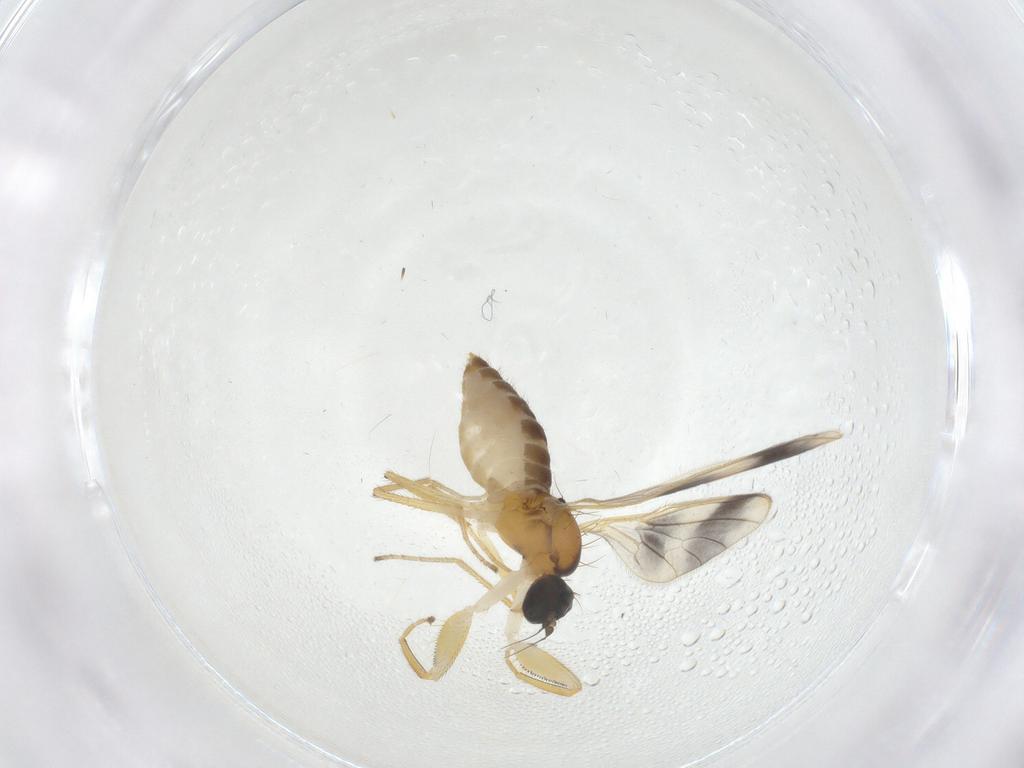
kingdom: Animalia
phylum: Arthropoda
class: Insecta
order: Diptera
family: Empididae
